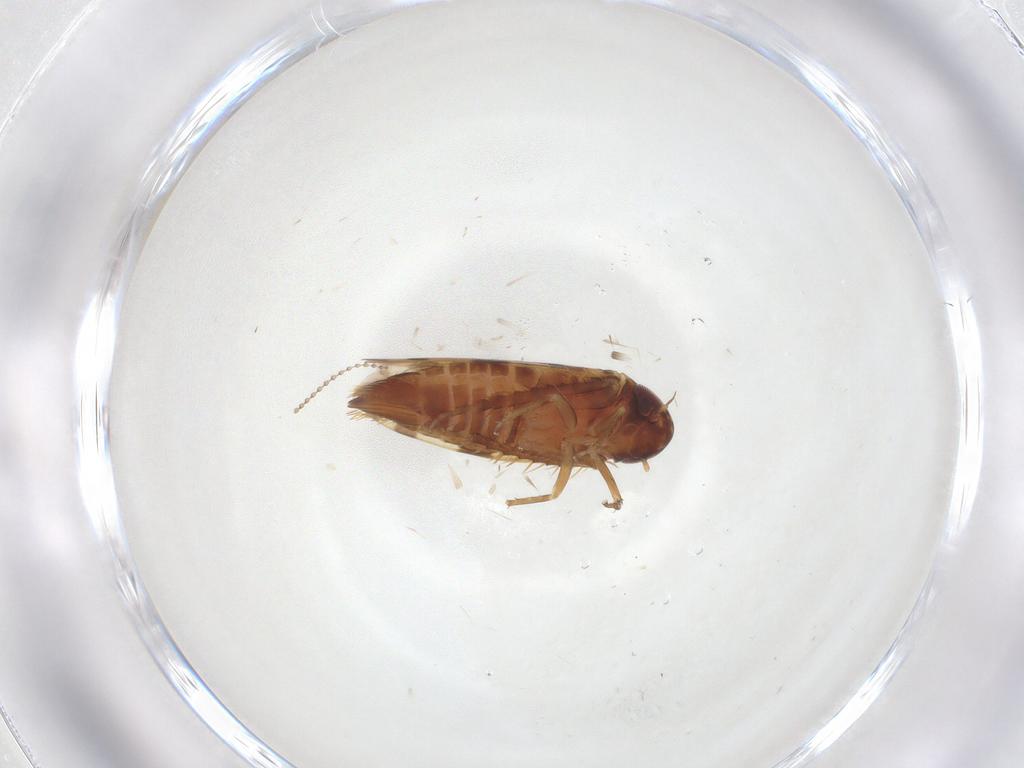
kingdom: Animalia
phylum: Arthropoda
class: Insecta
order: Hemiptera
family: Cicadellidae
